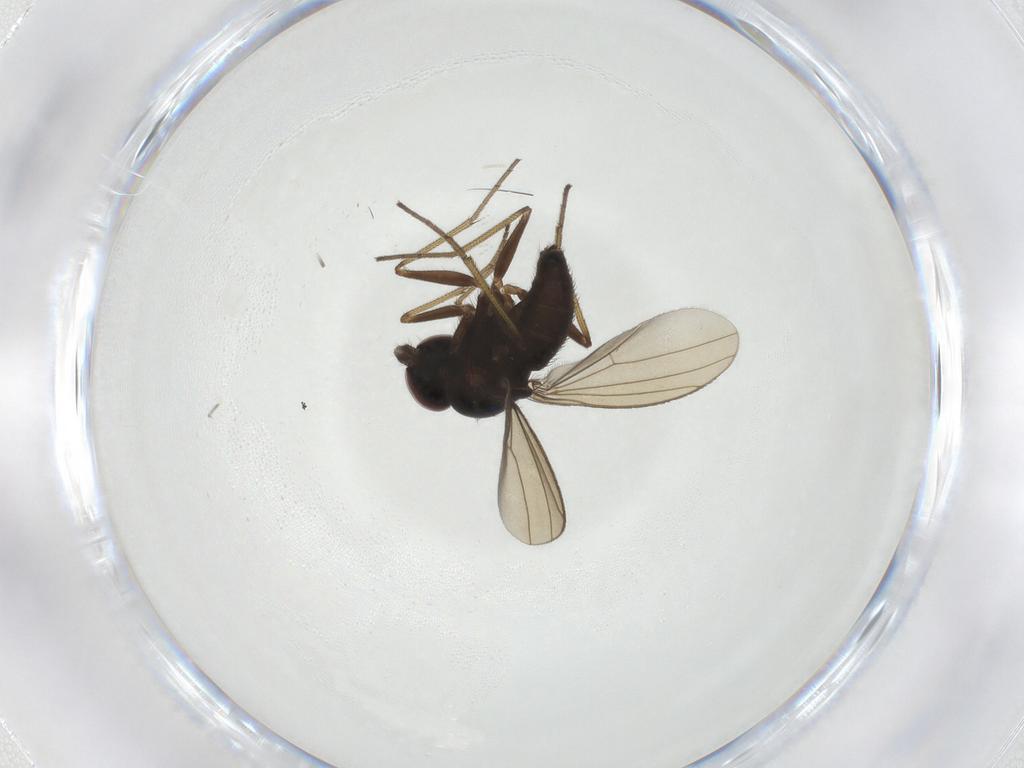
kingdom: Animalia
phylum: Arthropoda
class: Insecta
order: Diptera
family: Dolichopodidae
